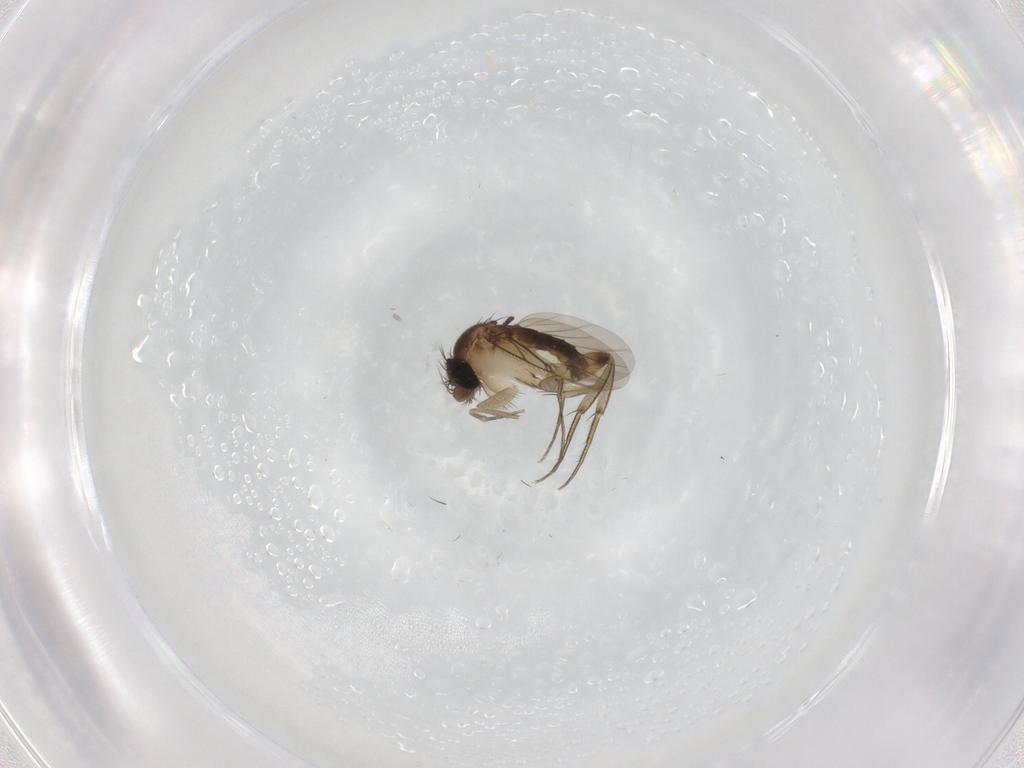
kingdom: Animalia
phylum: Arthropoda
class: Insecta
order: Diptera
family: Phoridae
